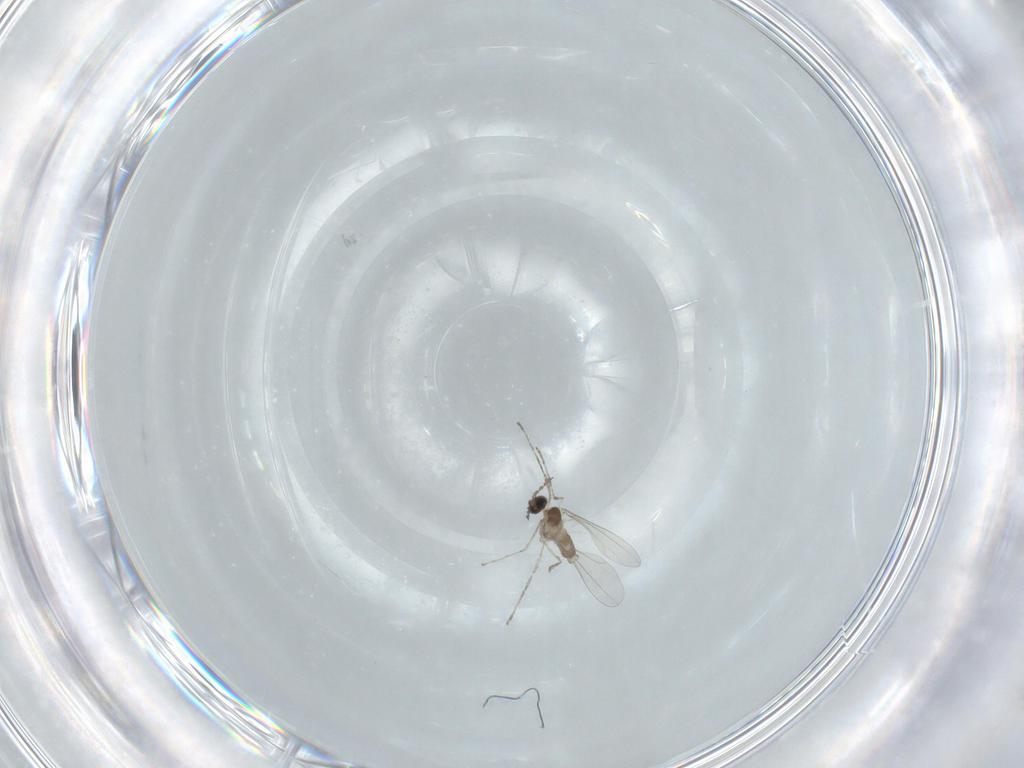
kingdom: Animalia
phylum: Arthropoda
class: Insecta
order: Diptera
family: Cecidomyiidae
